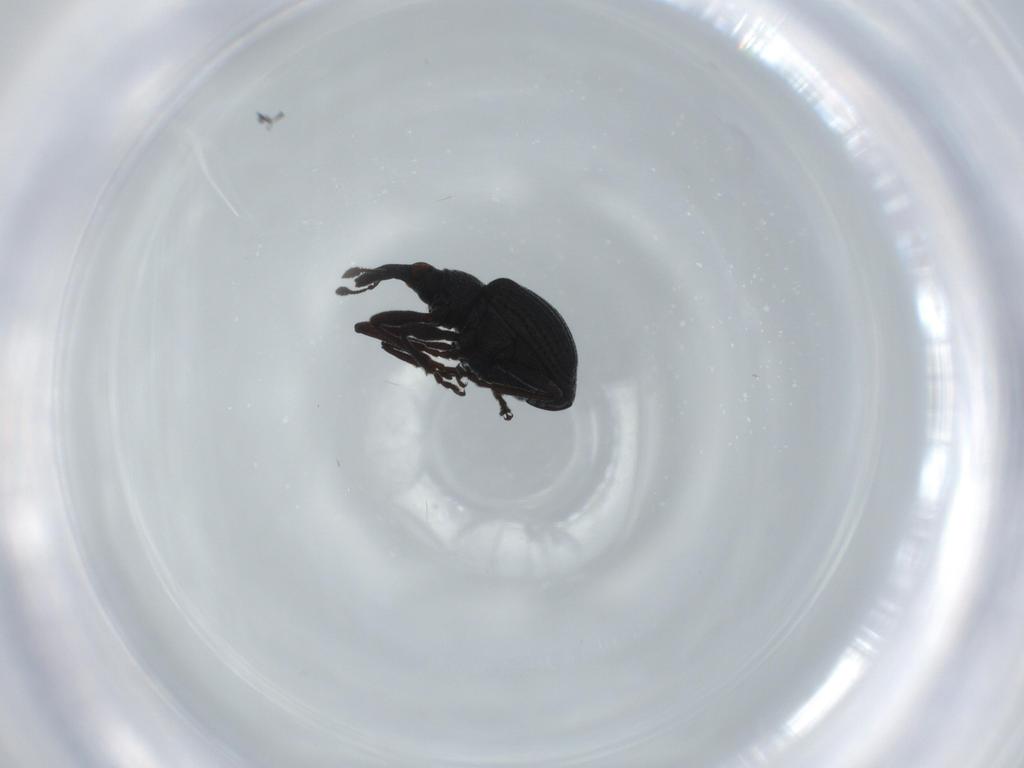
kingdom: Animalia
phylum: Arthropoda
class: Insecta
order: Coleoptera
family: Brentidae
